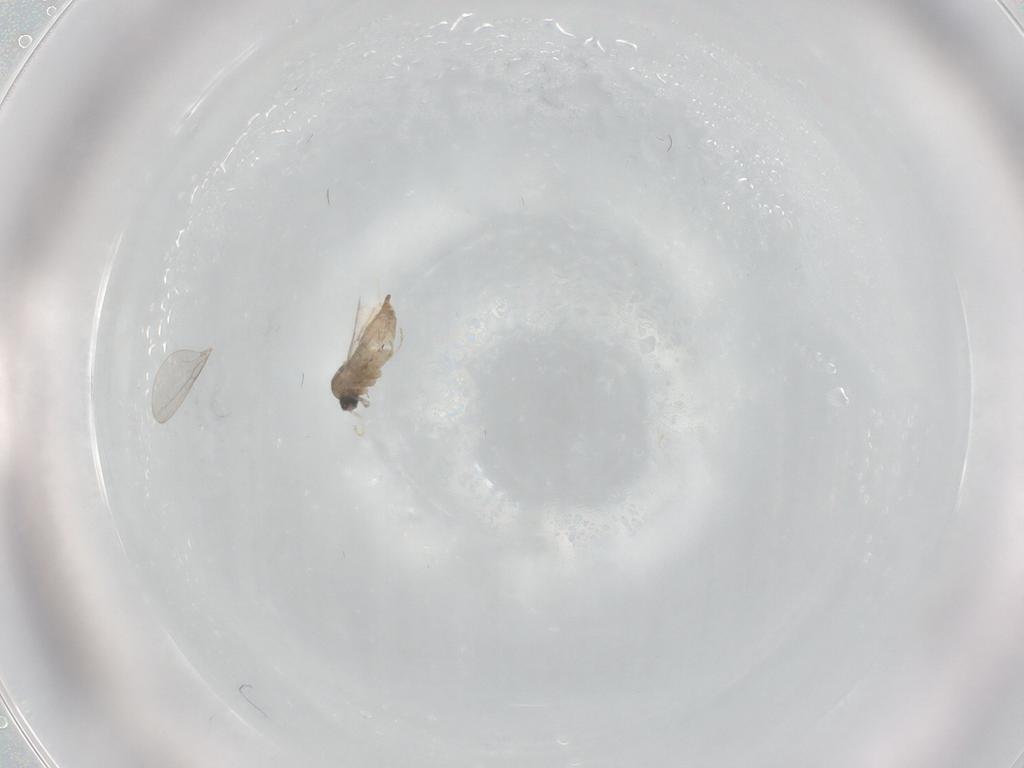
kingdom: Animalia
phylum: Arthropoda
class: Insecta
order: Diptera
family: Cecidomyiidae
